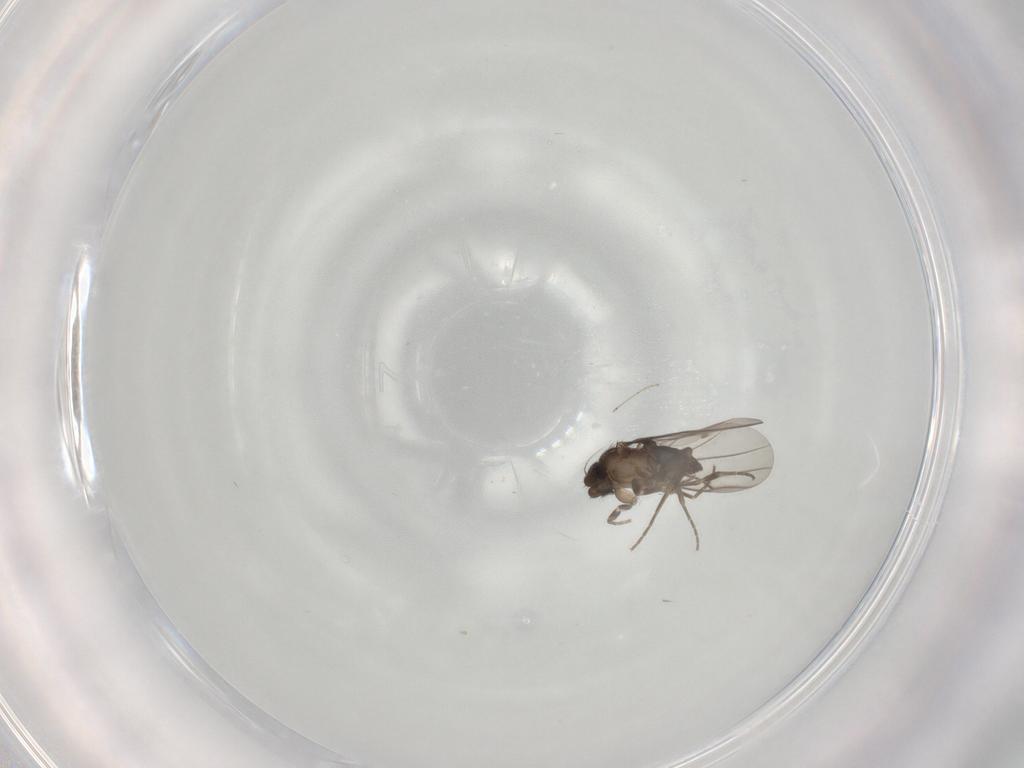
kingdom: Animalia
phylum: Arthropoda
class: Insecta
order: Diptera
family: Cecidomyiidae
